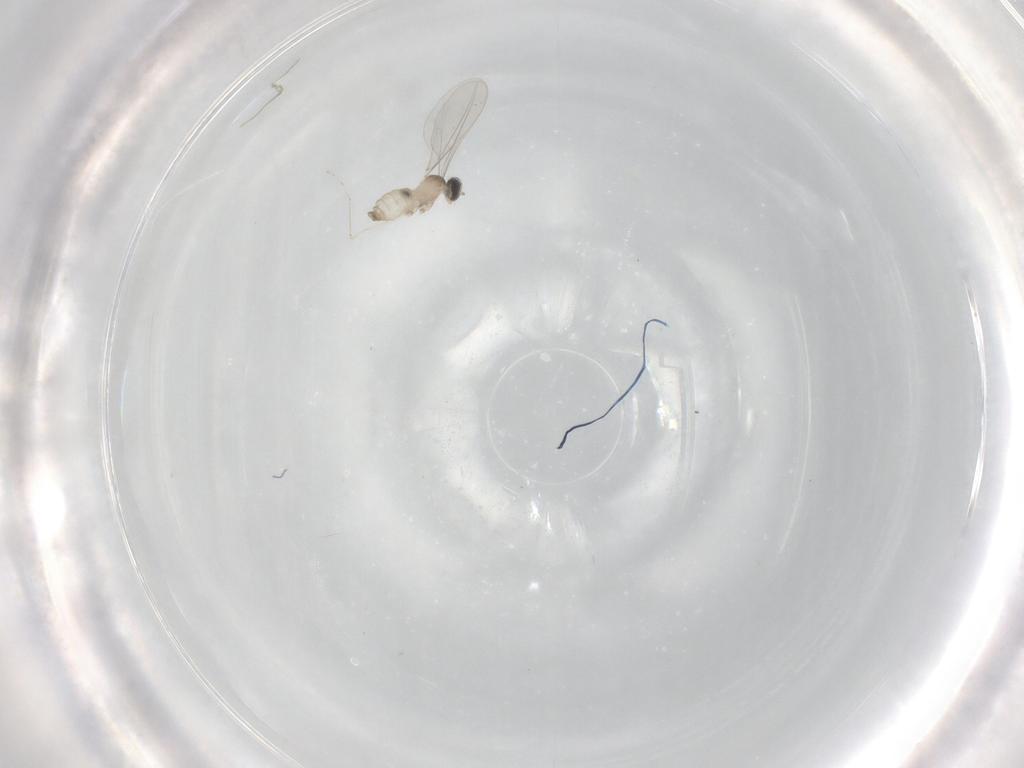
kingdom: Animalia
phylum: Arthropoda
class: Insecta
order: Diptera
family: Cecidomyiidae
